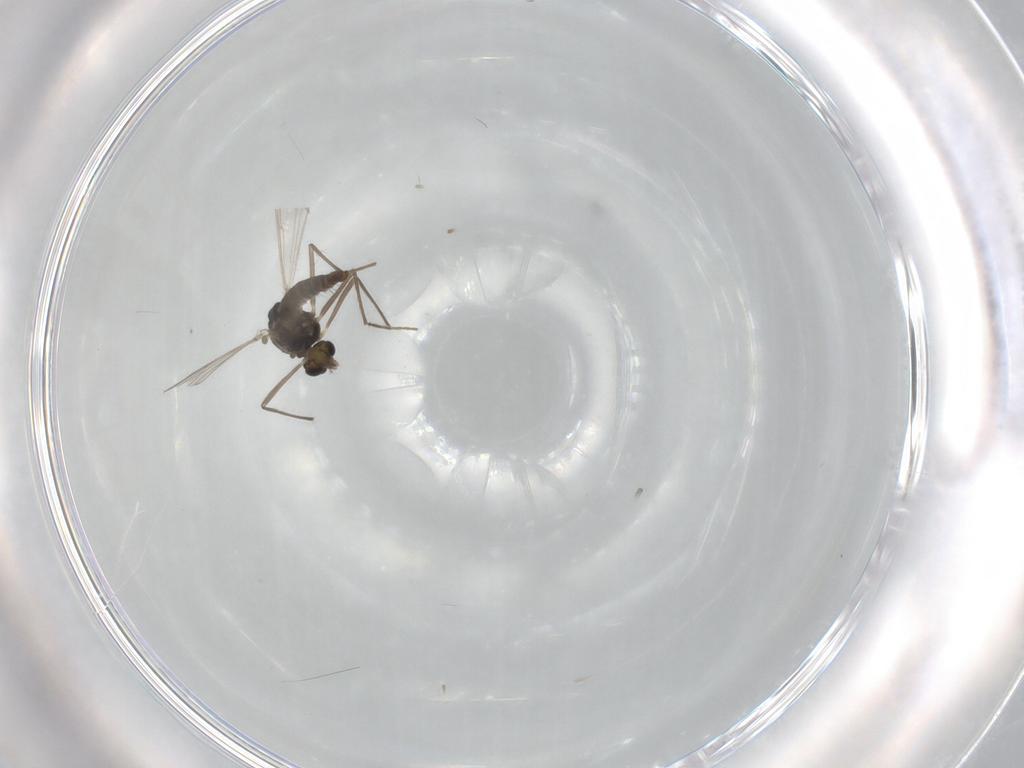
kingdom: Animalia
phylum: Arthropoda
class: Insecta
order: Diptera
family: Chironomidae
